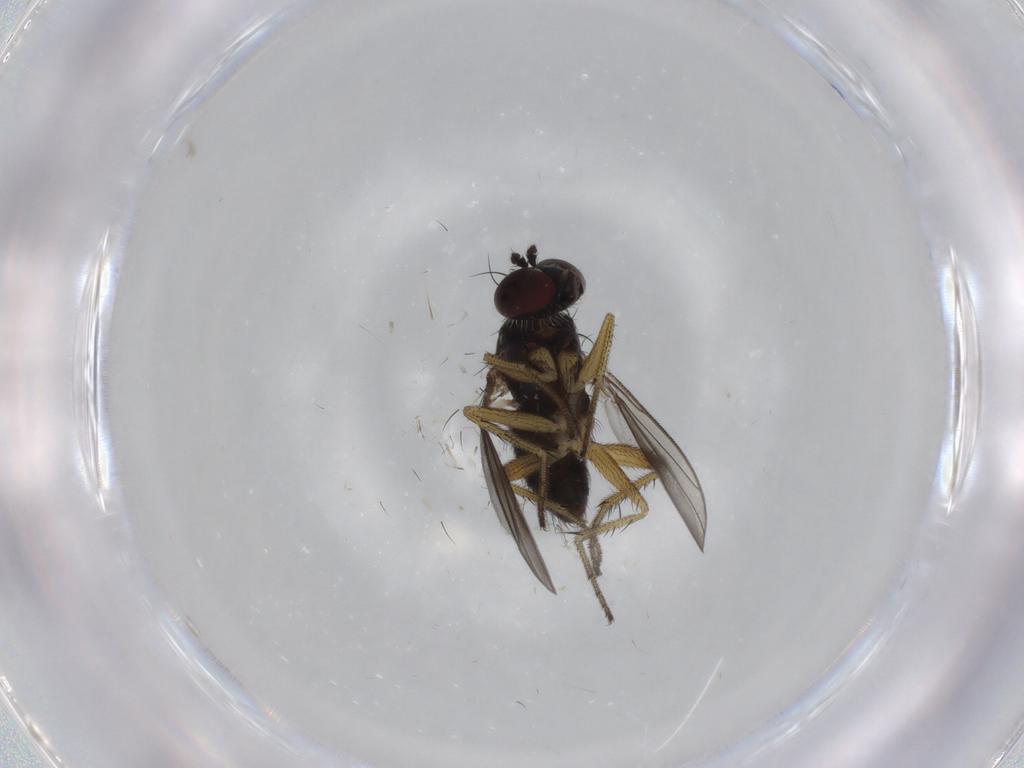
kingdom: Animalia
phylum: Arthropoda
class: Insecta
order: Diptera
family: Dolichopodidae
